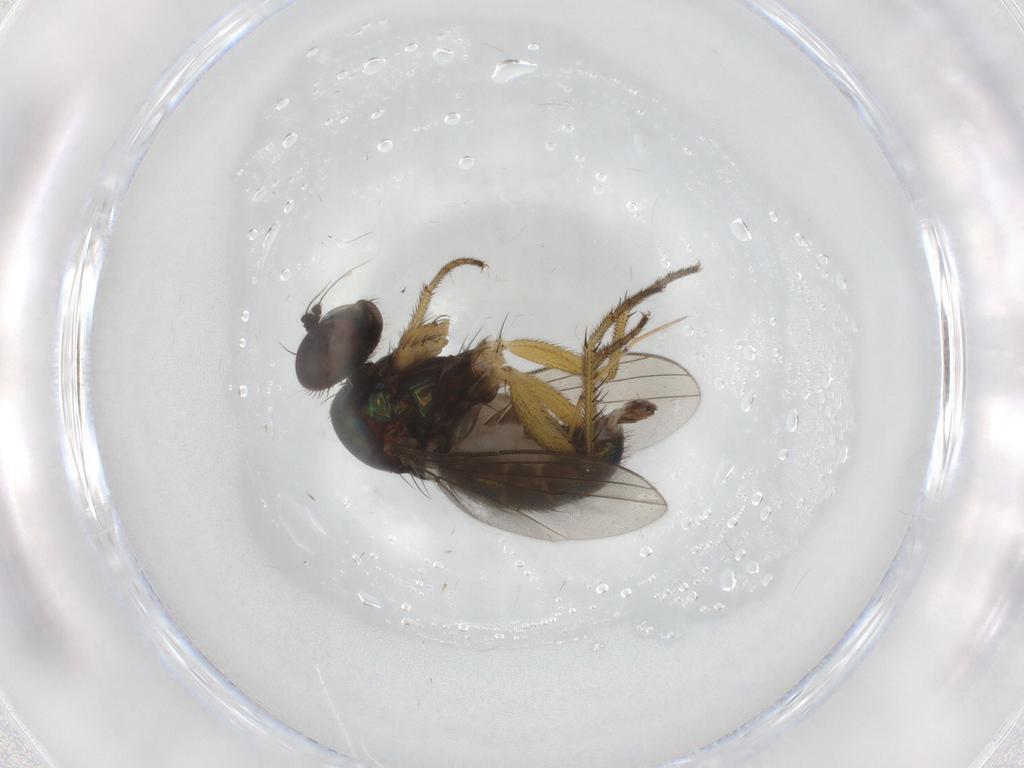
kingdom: Animalia
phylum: Arthropoda
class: Insecta
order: Diptera
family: Dolichopodidae
